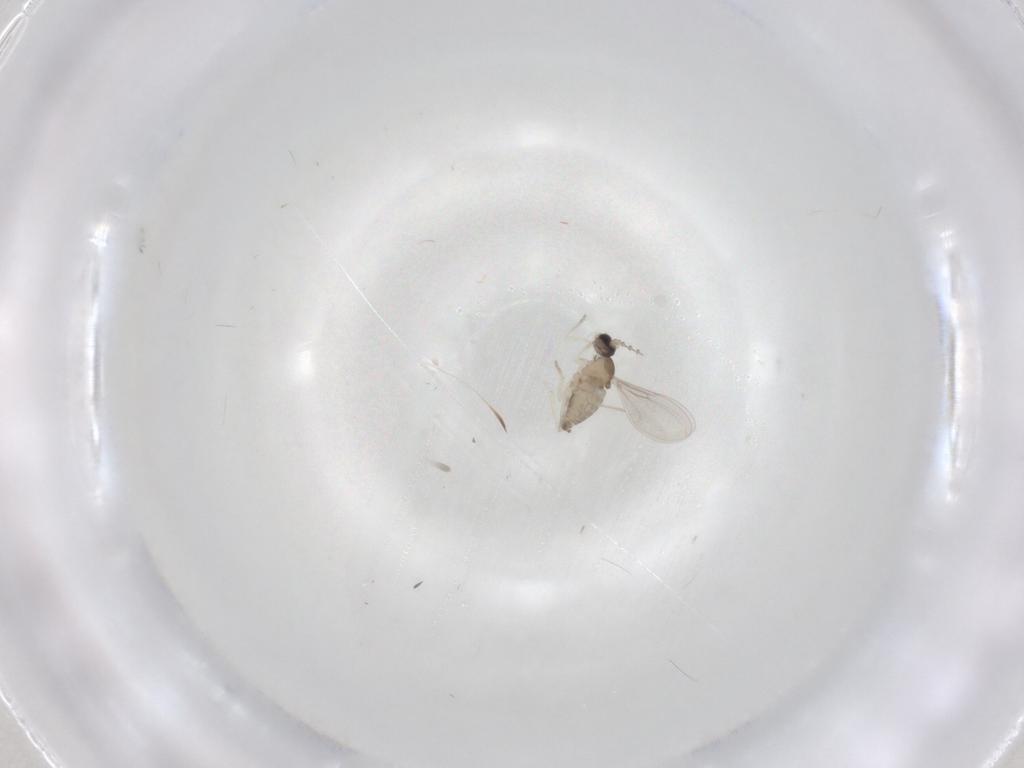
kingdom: Animalia
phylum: Arthropoda
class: Insecta
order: Diptera
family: Cecidomyiidae
